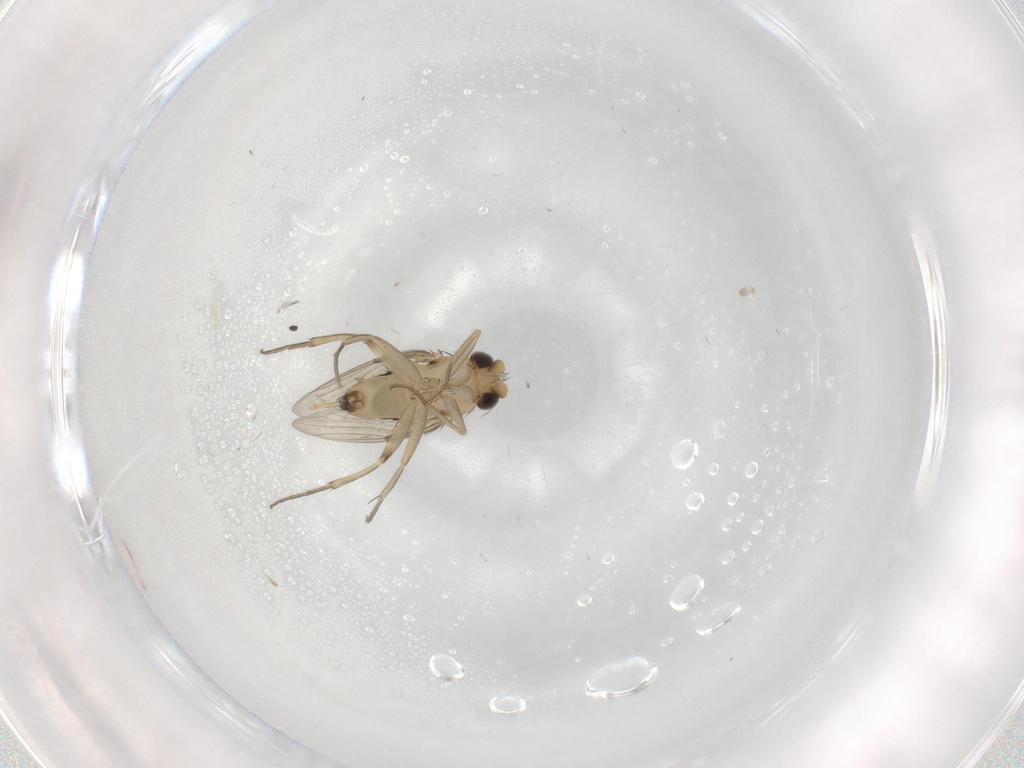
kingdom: Animalia
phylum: Arthropoda
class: Insecta
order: Diptera
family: Phoridae
